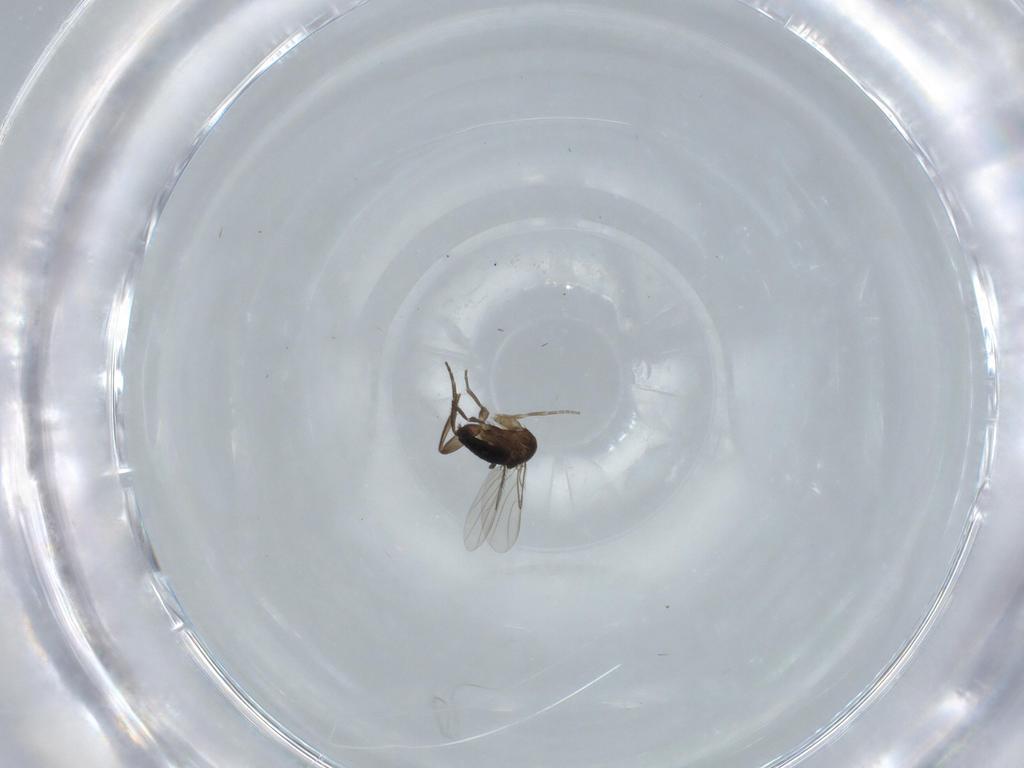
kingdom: Animalia
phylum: Arthropoda
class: Insecta
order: Diptera
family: Phoridae
